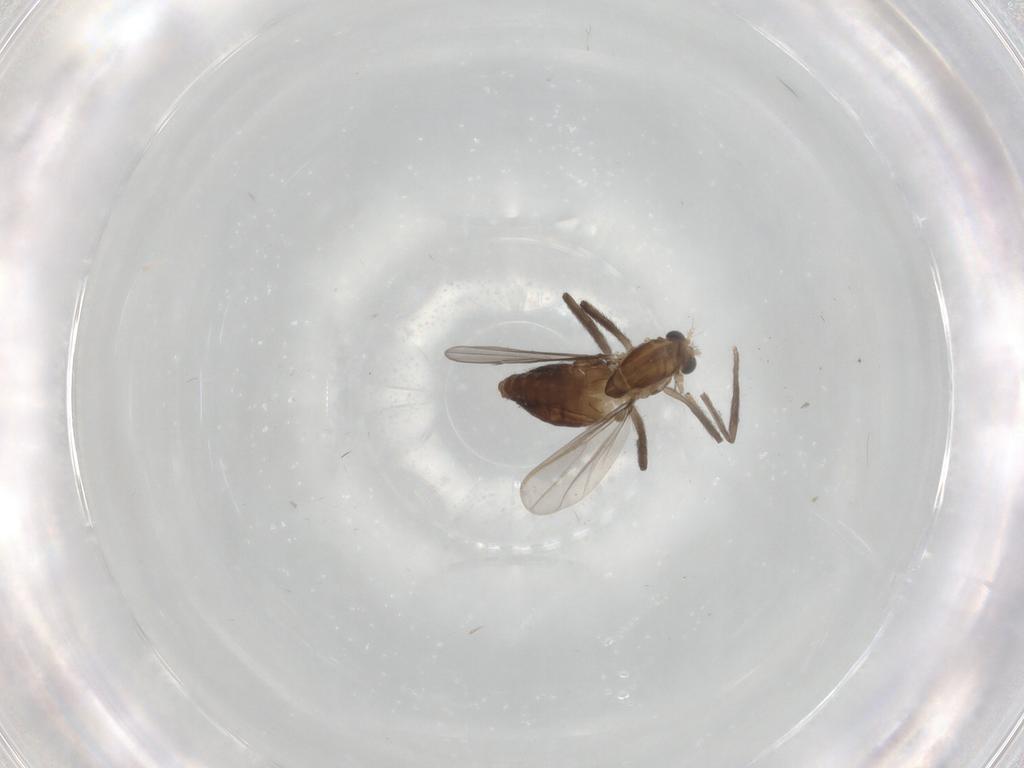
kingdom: Animalia
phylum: Arthropoda
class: Insecta
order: Diptera
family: Chironomidae
